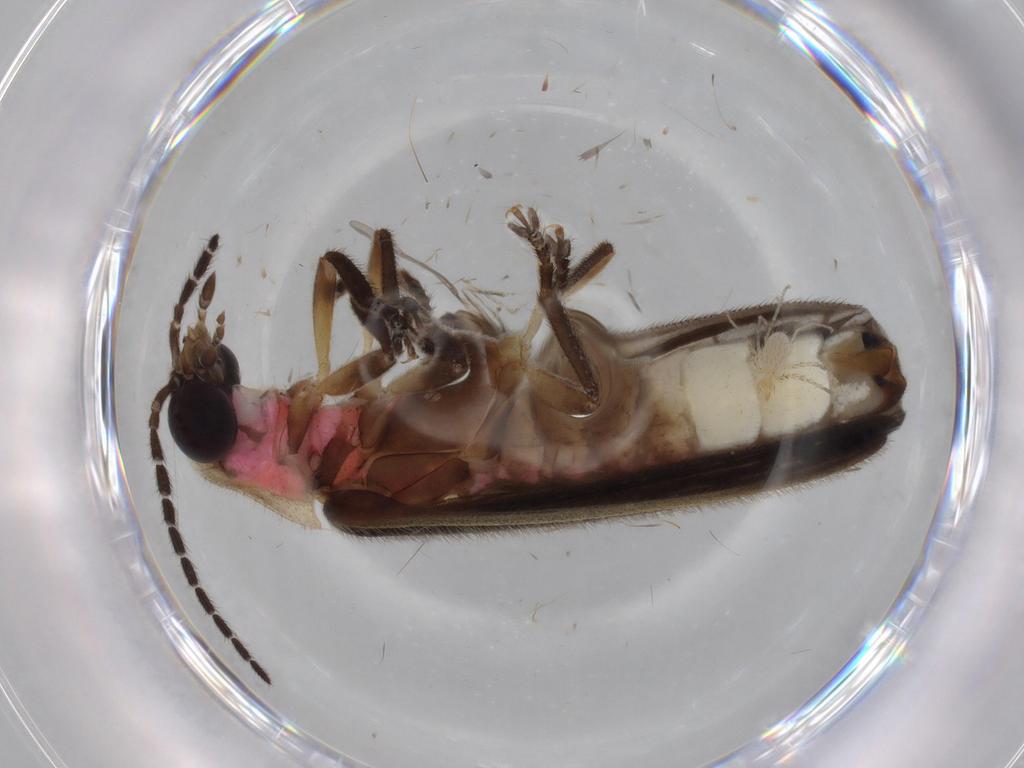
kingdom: Animalia
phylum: Arthropoda
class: Insecta
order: Coleoptera
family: Lampyridae
